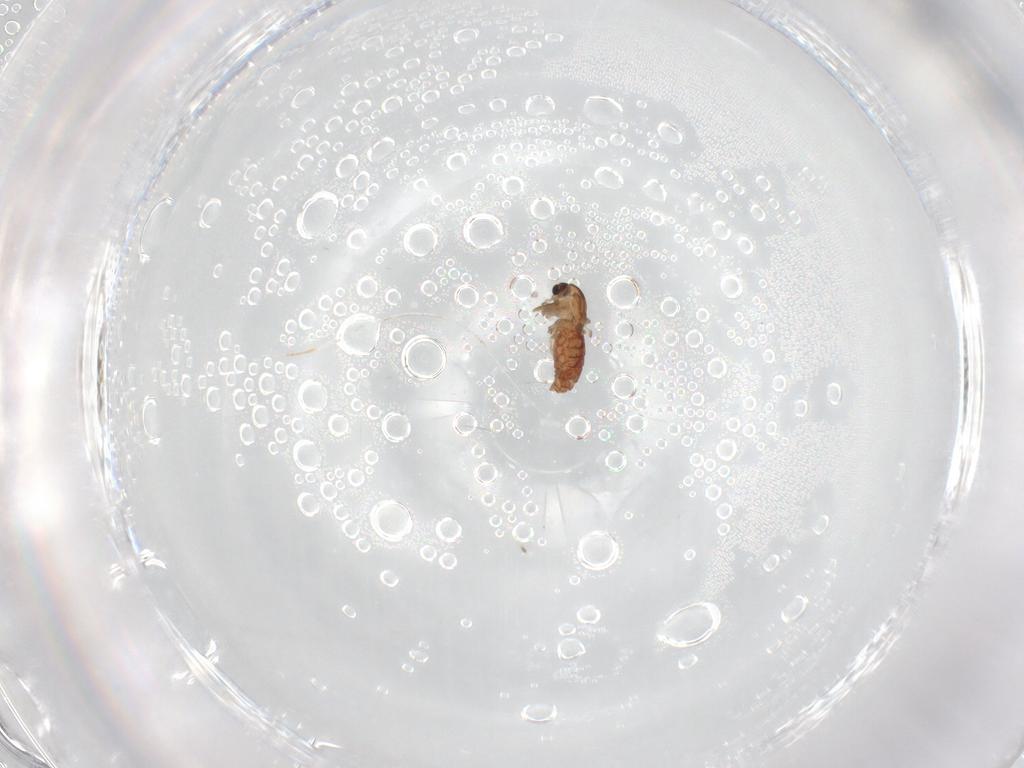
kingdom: Animalia
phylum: Arthropoda
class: Insecta
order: Diptera
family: Chironomidae
